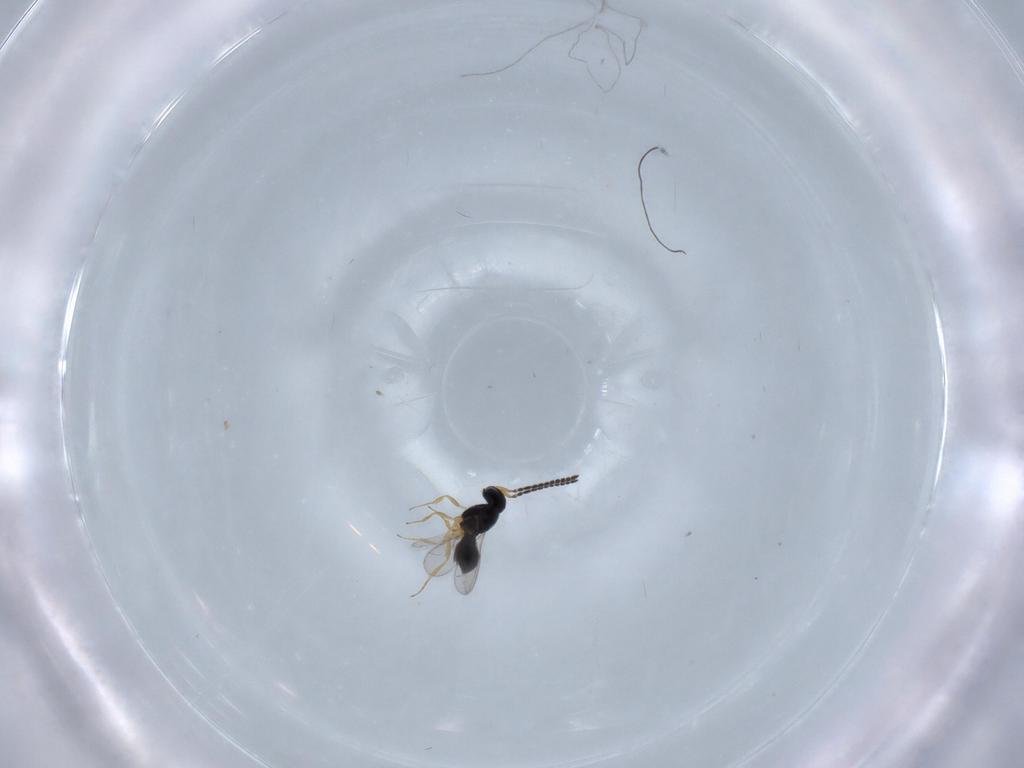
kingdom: Animalia
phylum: Arthropoda
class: Insecta
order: Hymenoptera
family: Scelionidae
